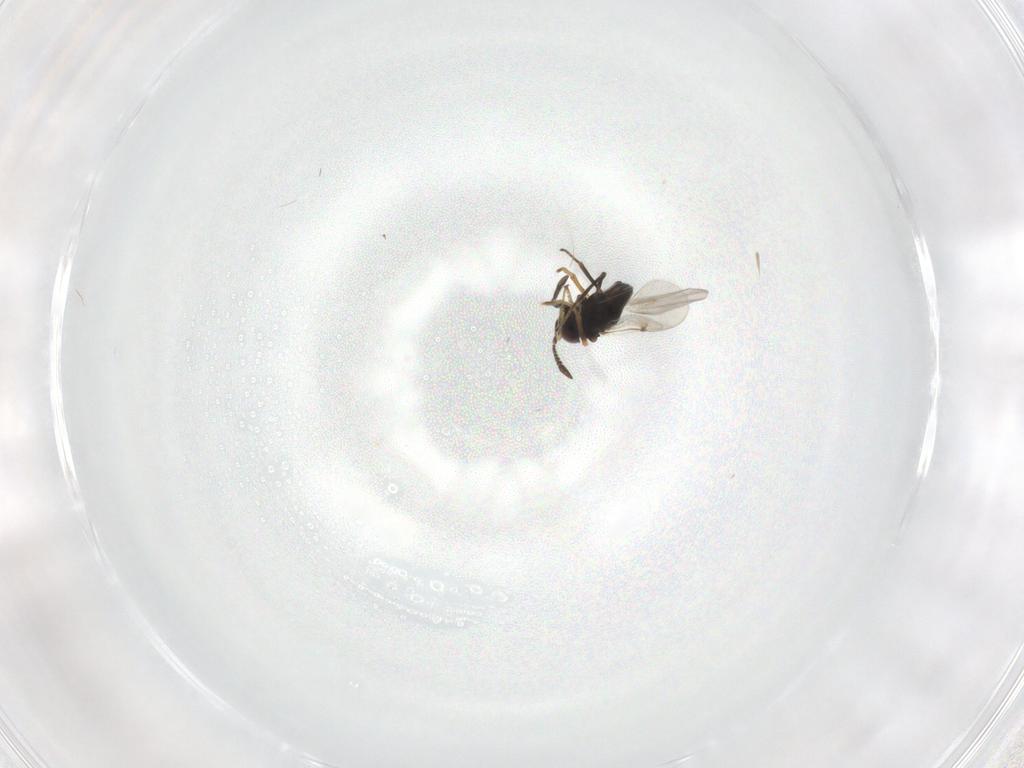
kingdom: Animalia
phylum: Arthropoda
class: Insecta
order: Hymenoptera
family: Encyrtidae
